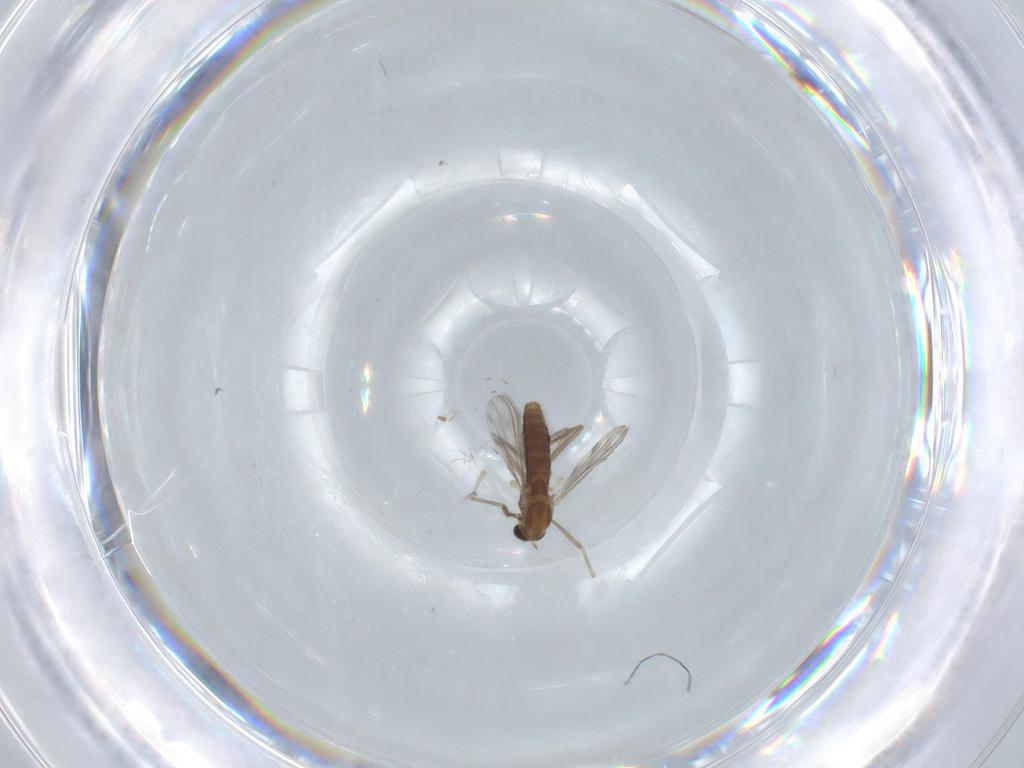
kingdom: Animalia
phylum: Arthropoda
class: Insecta
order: Diptera
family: Chironomidae
